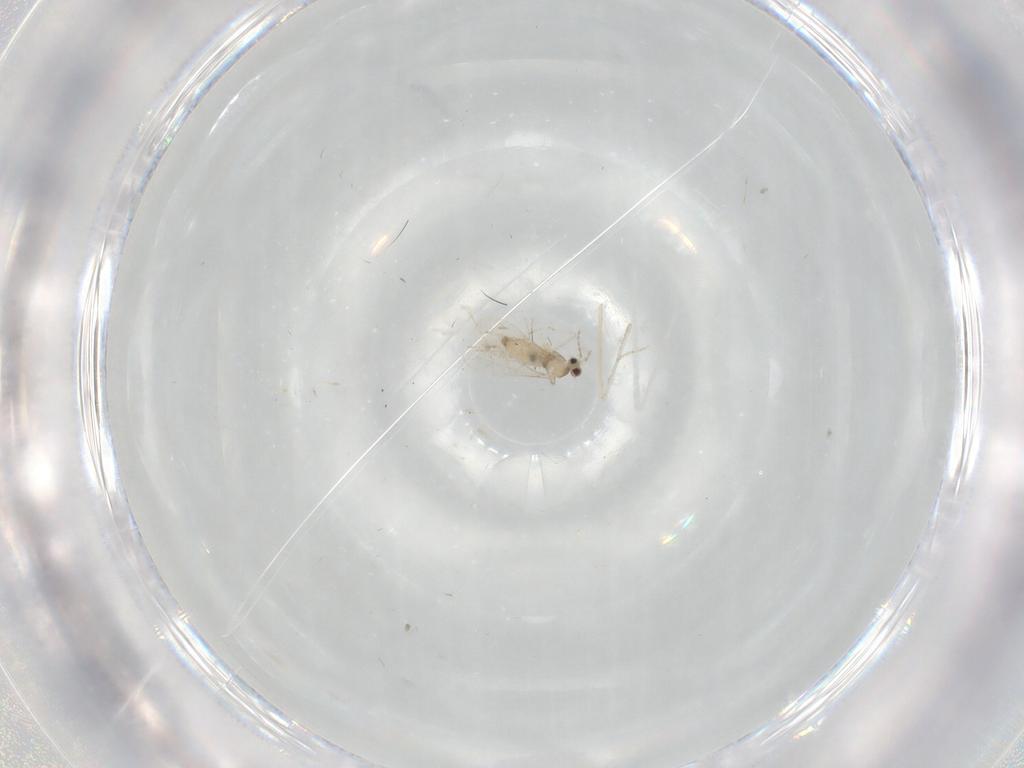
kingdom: Animalia
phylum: Arthropoda
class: Insecta
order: Diptera
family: Cecidomyiidae
